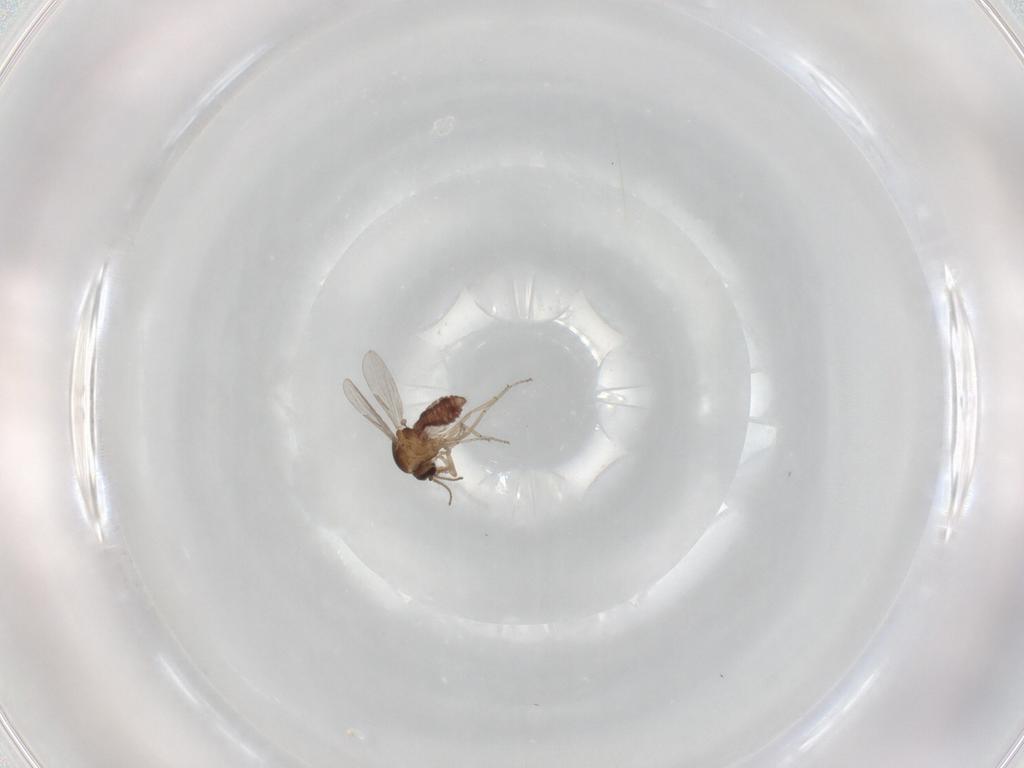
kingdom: Animalia
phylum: Arthropoda
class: Insecta
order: Diptera
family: Ceratopogonidae
